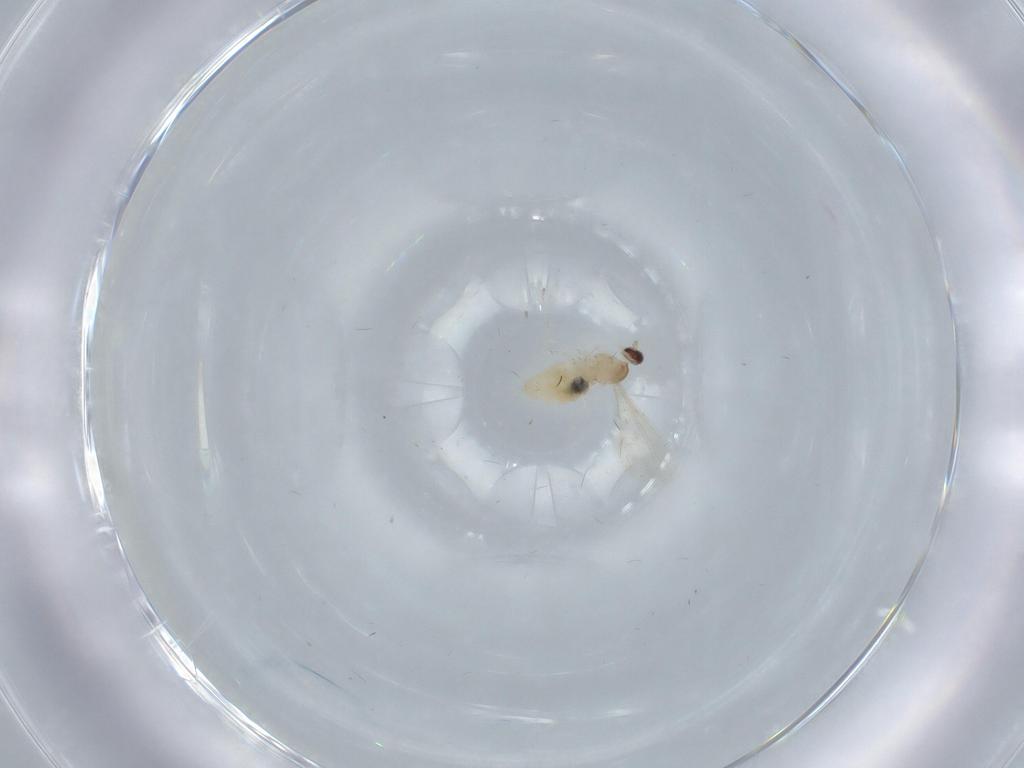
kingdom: Animalia
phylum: Arthropoda
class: Insecta
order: Diptera
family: Cecidomyiidae
